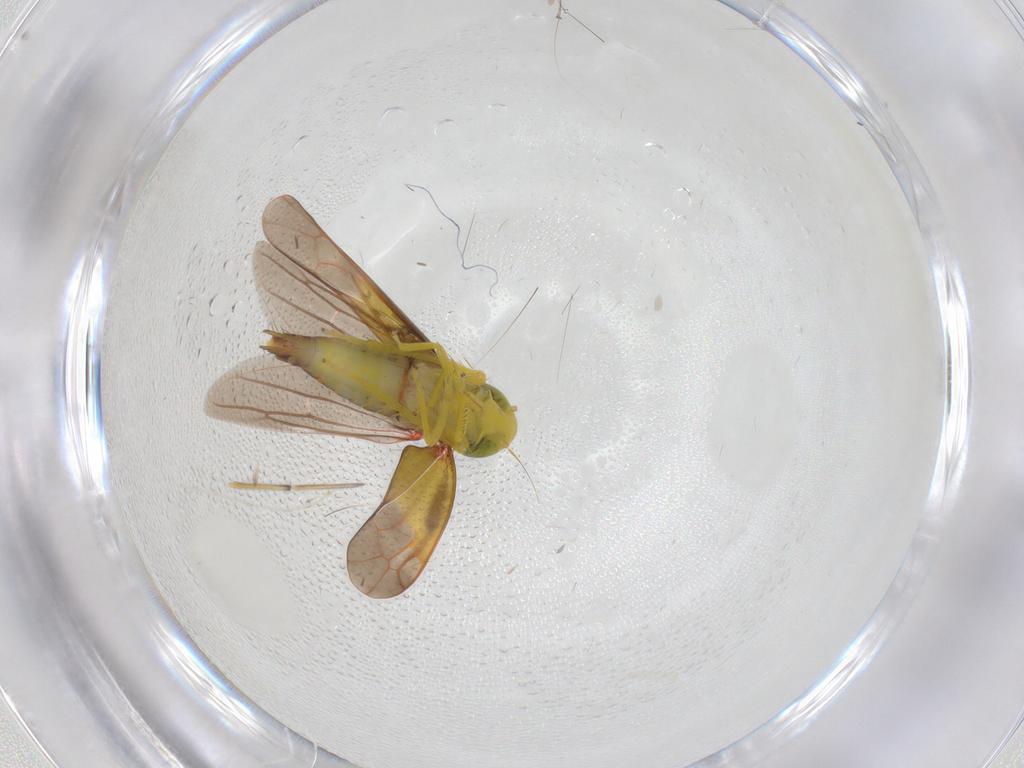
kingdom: Animalia
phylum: Arthropoda
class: Insecta
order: Hemiptera
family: Cicadellidae
